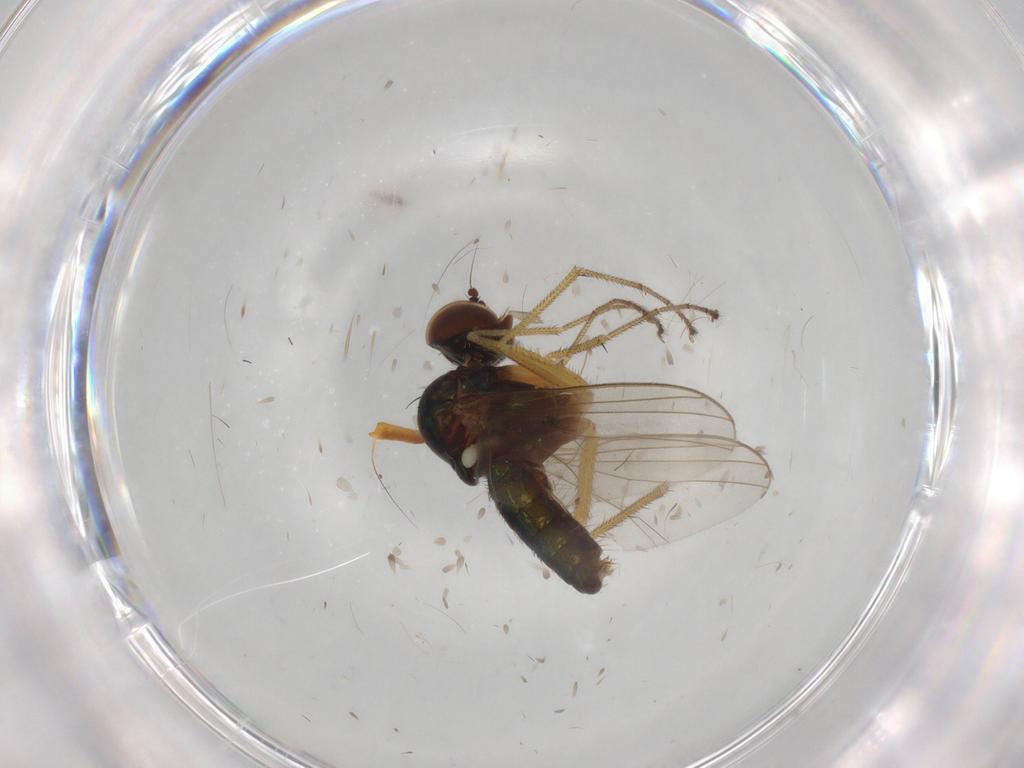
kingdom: Animalia
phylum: Arthropoda
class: Insecta
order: Diptera
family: Dolichopodidae
